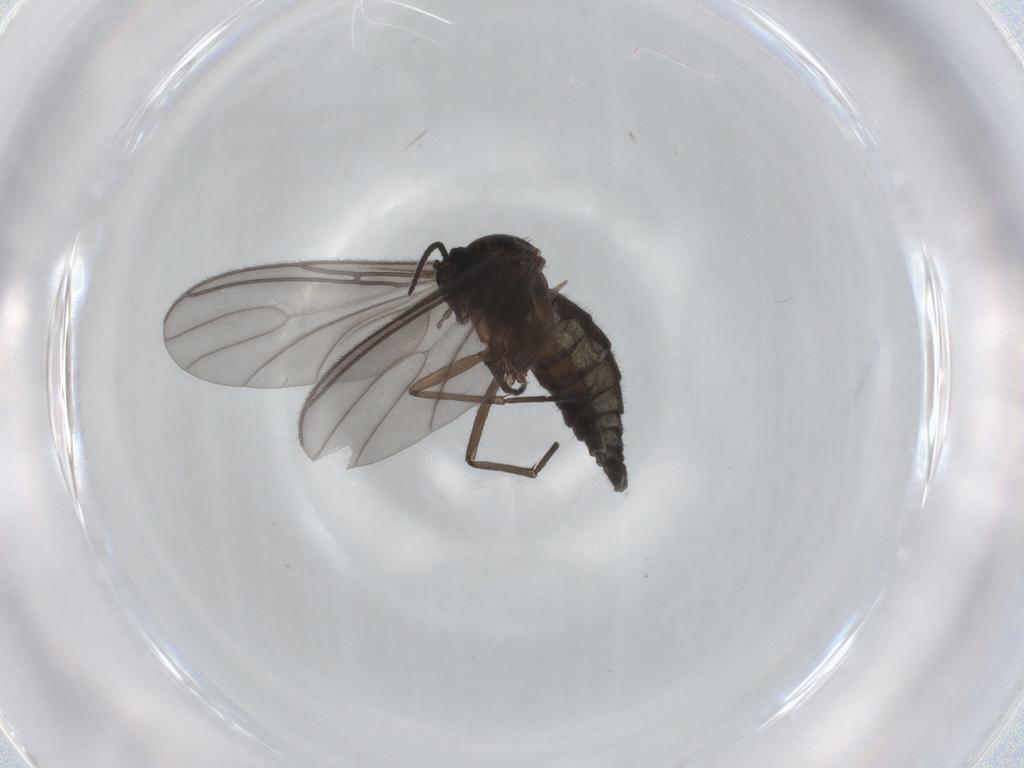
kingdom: Animalia
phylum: Arthropoda
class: Insecta
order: Diptera
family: Sciaridae
